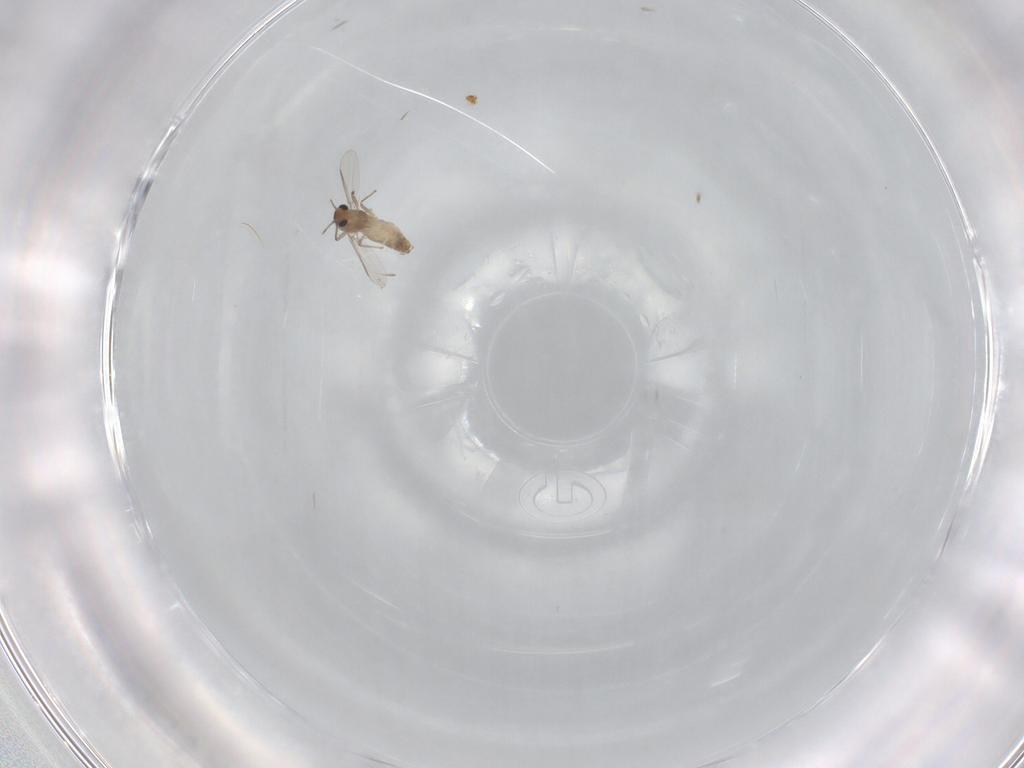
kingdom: Animalia
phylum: Arthropoda
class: Insecta
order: Diptera
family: Cecidomyiidae
